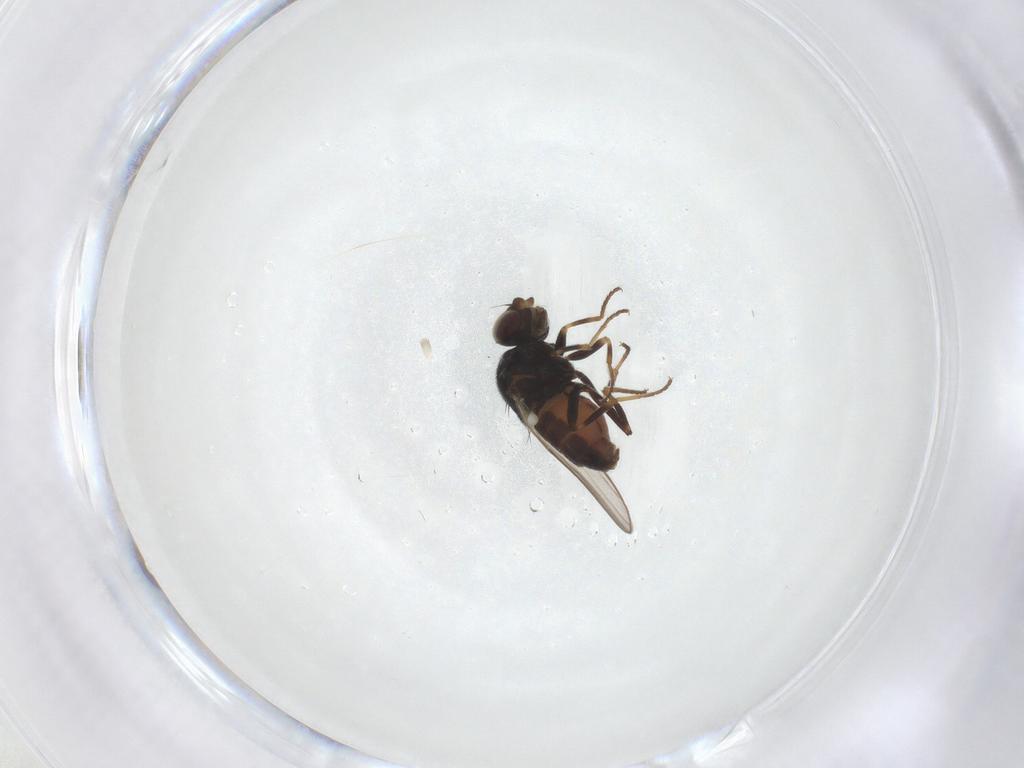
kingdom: Animalia
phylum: Arthropoda
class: Insecta
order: Diptera
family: Chloropidae
